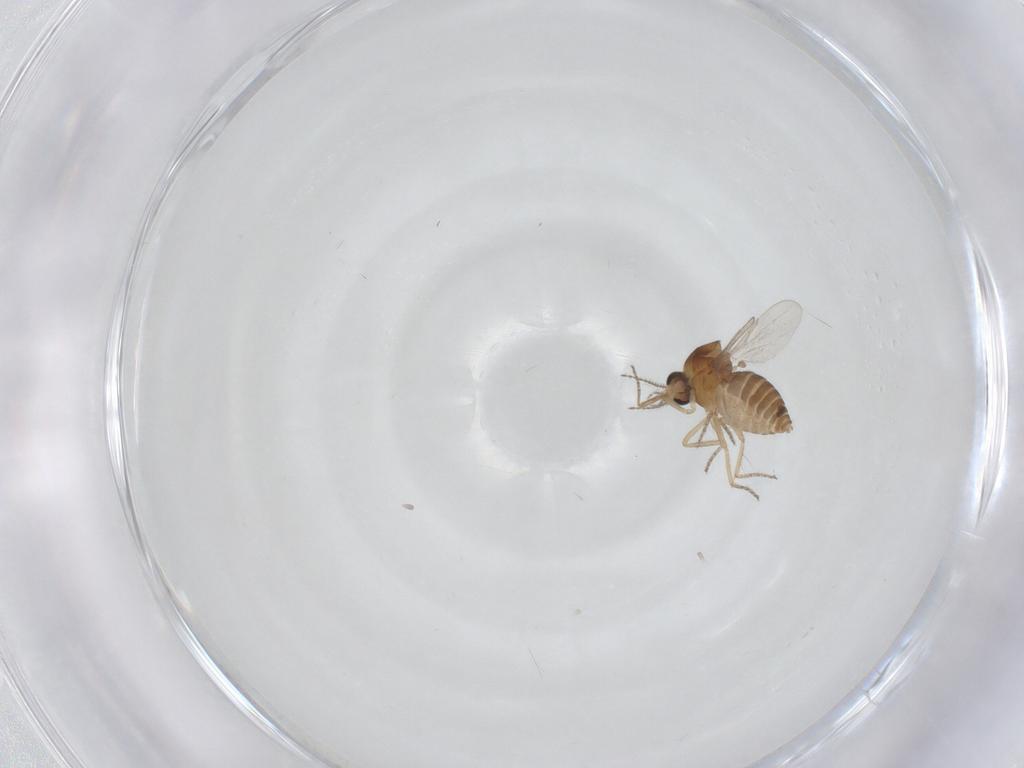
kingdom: Animalia
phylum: Arthropoda
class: Insecta
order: Diptera
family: Ceratopogonidae
